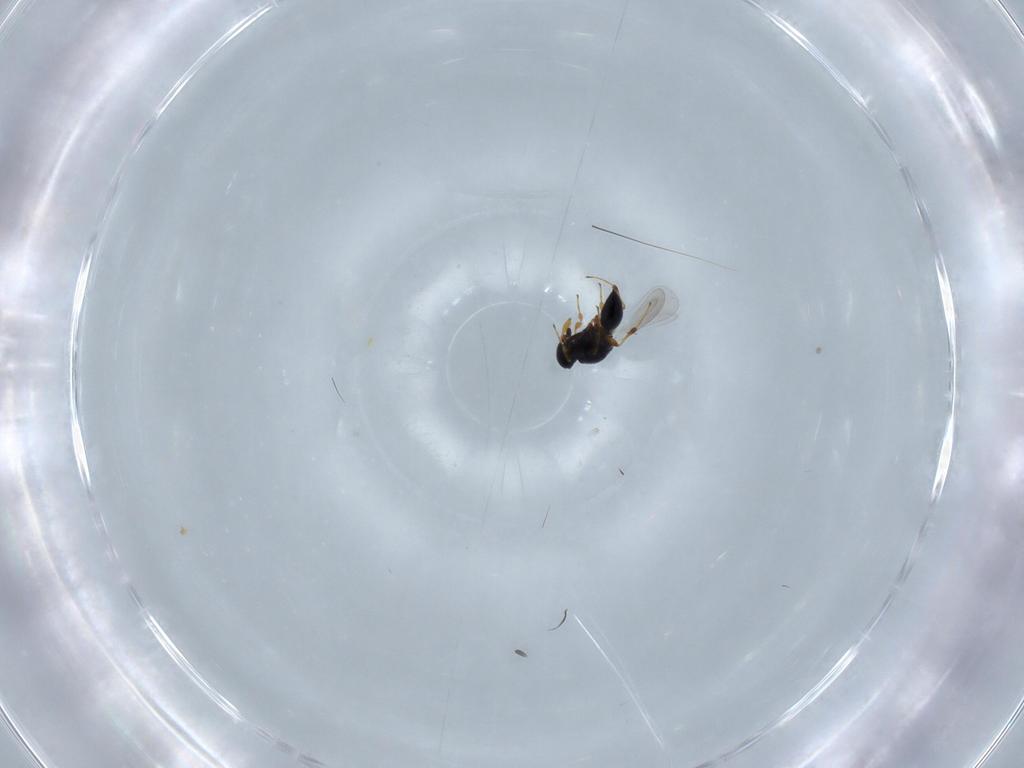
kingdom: Animalia
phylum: Arthropoda
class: Insecta
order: Hymenoptera
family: Platygastridae
